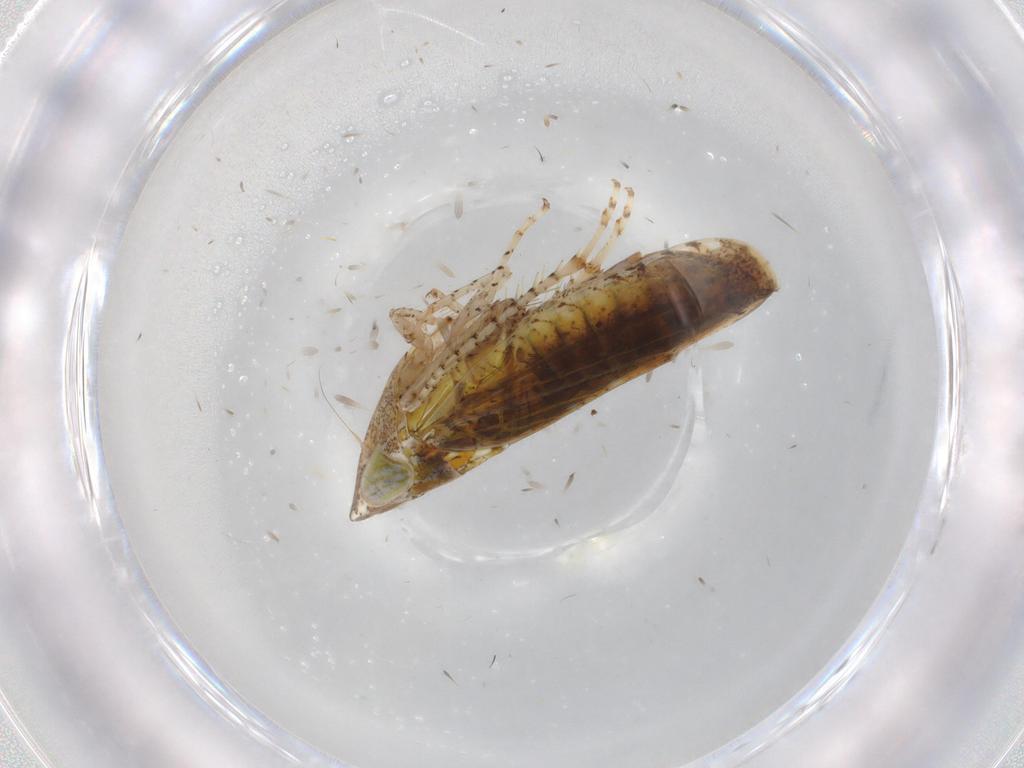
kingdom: Animalia
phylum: Arthropoda
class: Insecta
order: Hemiptera
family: Cicadellidae
